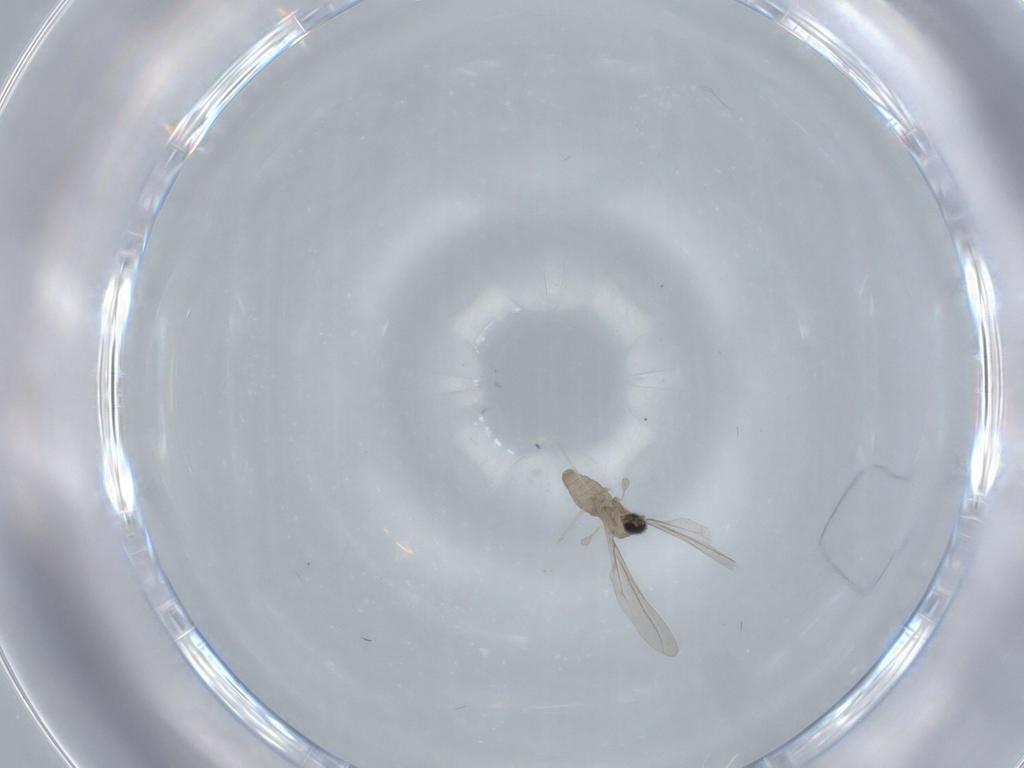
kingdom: Animalia
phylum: Arthropoda
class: Insecta
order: Diptera
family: Cecidomyiidae
